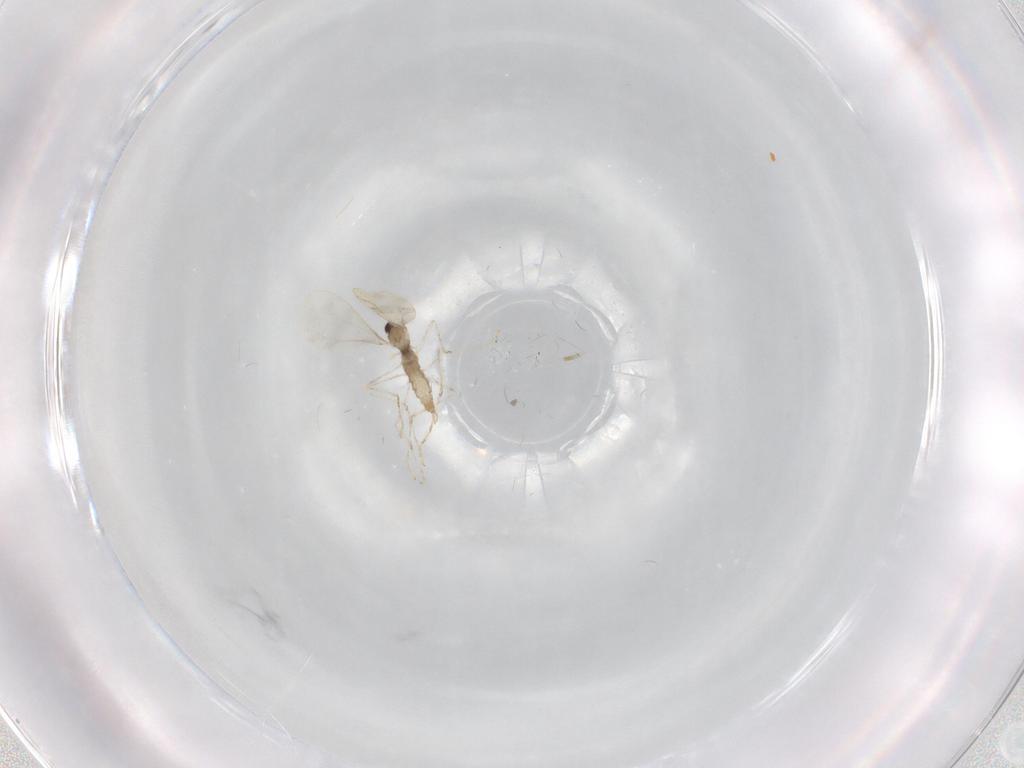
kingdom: Animalia
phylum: Arthropoda
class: Insecta
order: Diptera
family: Cecidomyiidae
